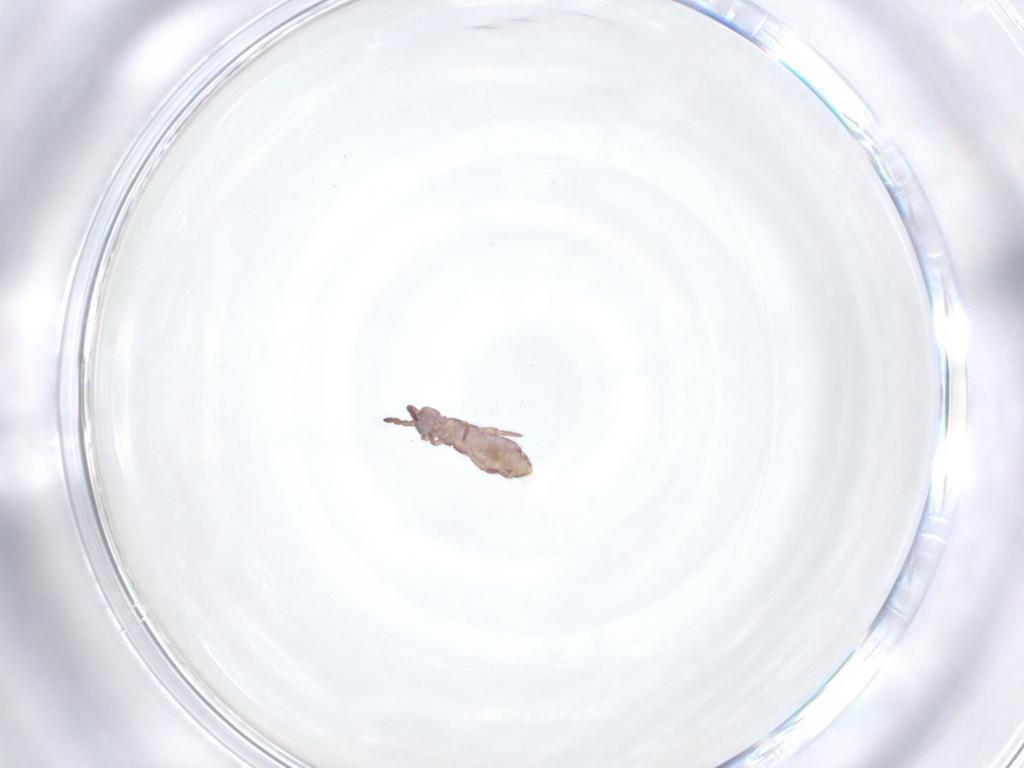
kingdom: Animalia
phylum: Arthropoda
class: Collembola
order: Entomobryomorpha
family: Isotomidae
